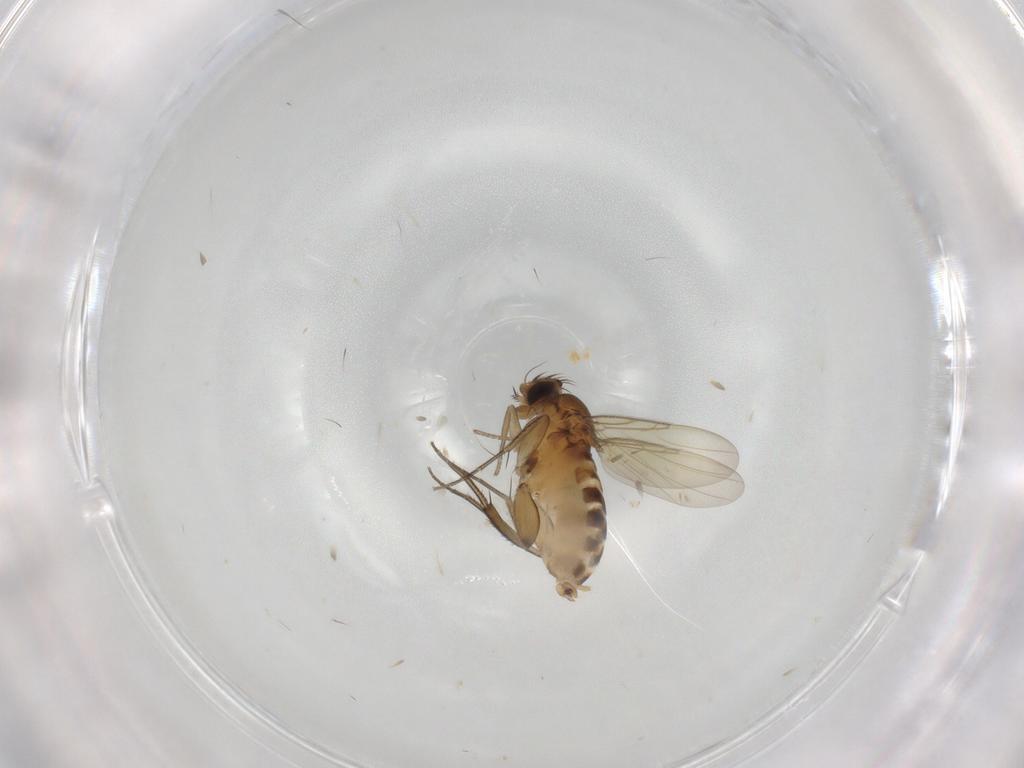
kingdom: Animalia
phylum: Arthropoda
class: Insecta
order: Diptera
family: Phoridae
